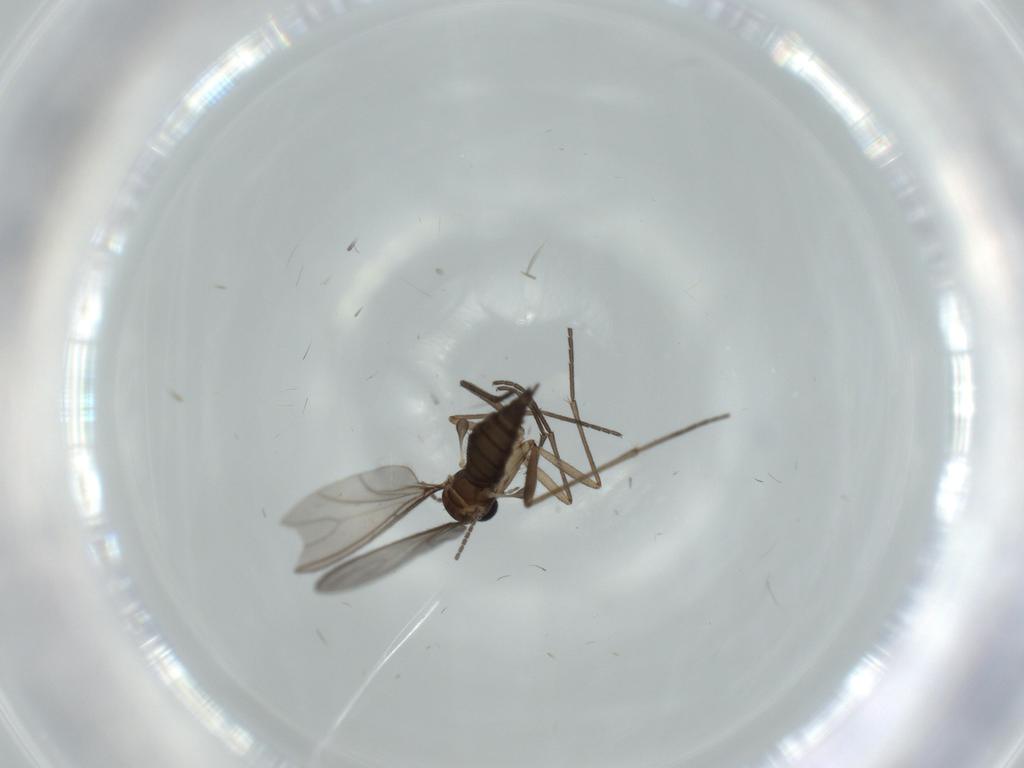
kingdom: Animalia
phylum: Arthropoda
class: Insecta
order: Diptera
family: Sciaridae
